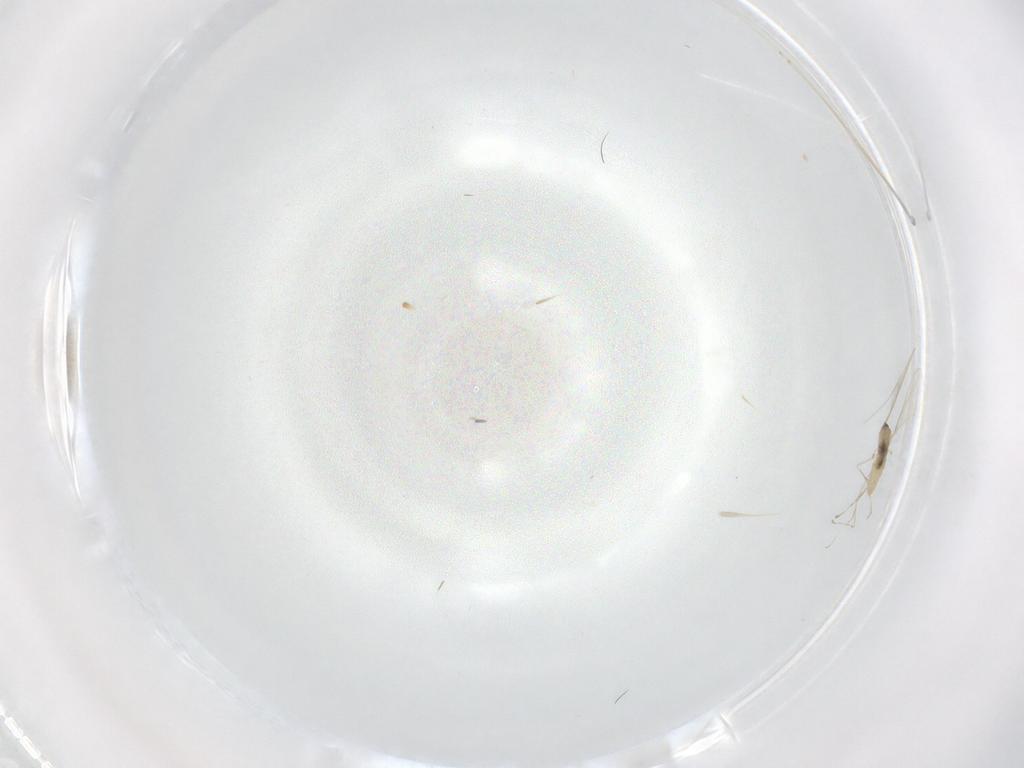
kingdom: Animalia
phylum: Arthropoda
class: Insecta
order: Diptera
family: Cecidomyiidae
